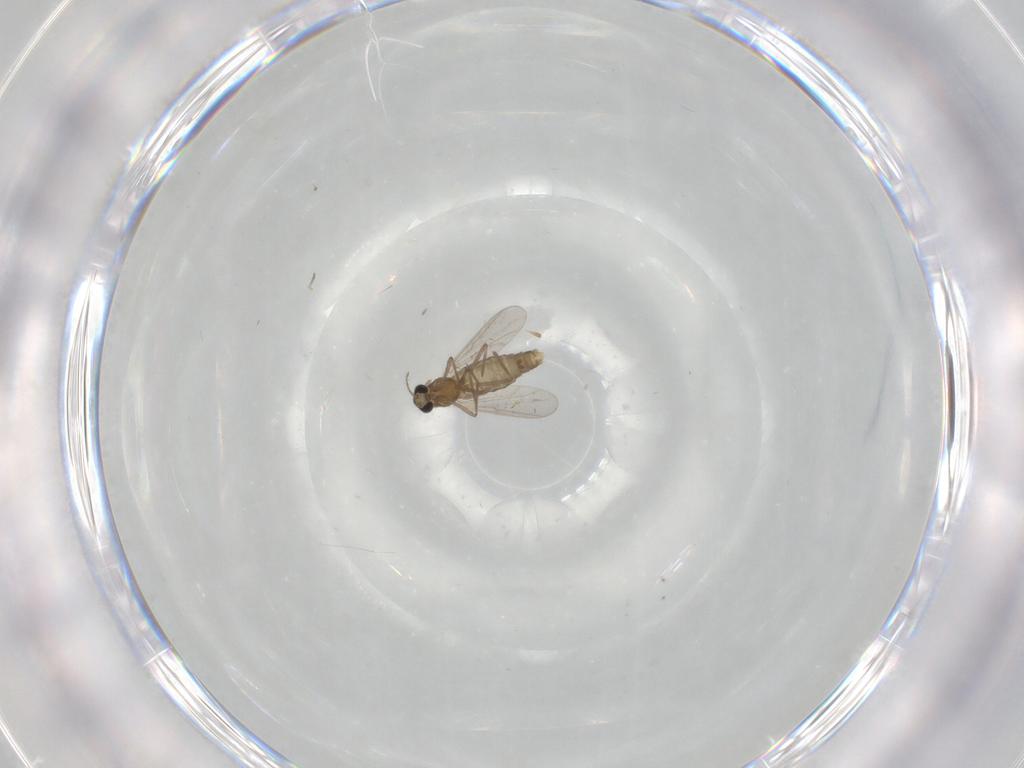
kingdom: Animalia
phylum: Arthropoda
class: Insecta
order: Diptera
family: Chironomidae
